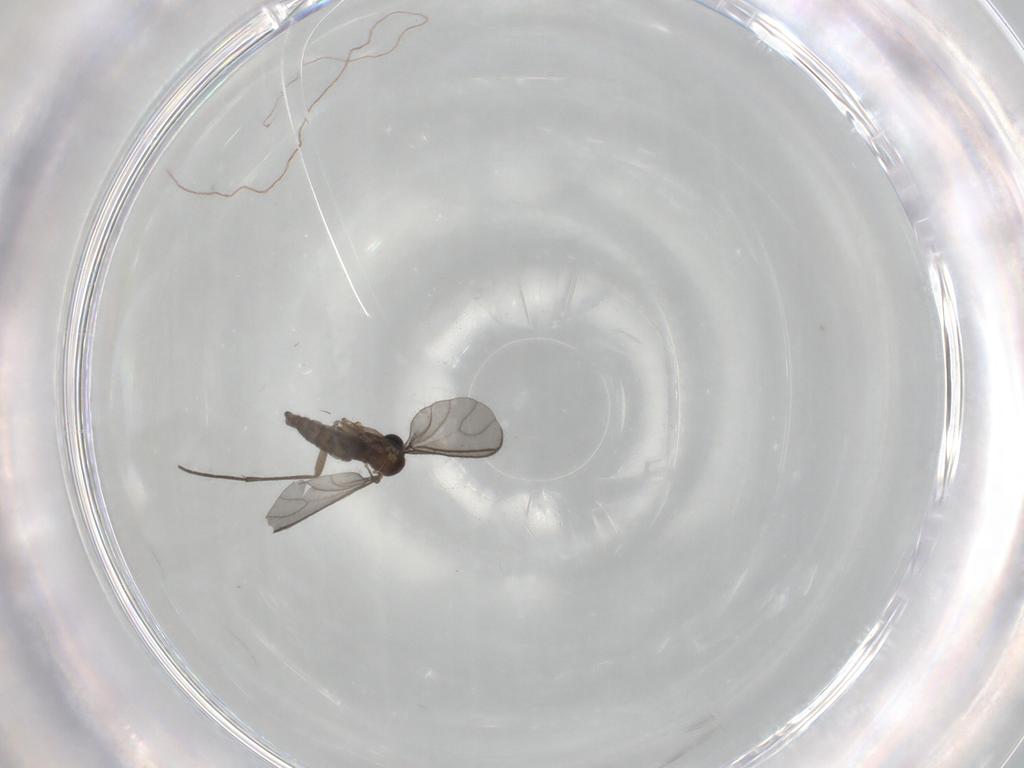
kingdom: Animalia
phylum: Arthropoda
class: Insecta
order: Diptera
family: Sciaridae
